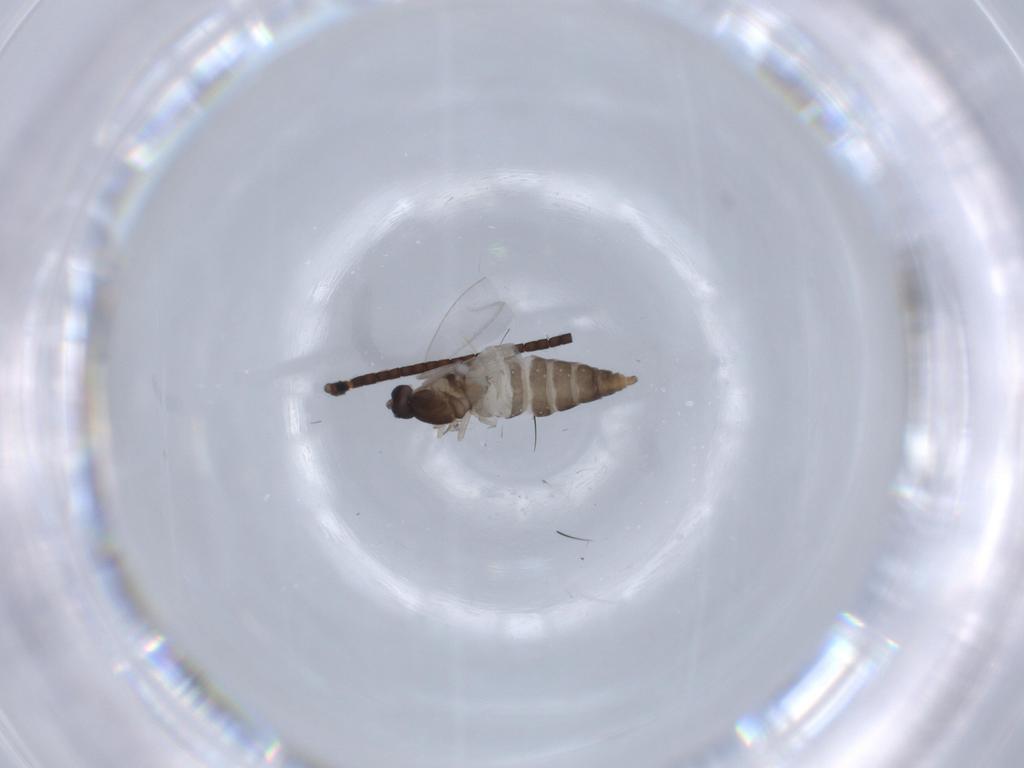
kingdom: Animalia
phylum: Arthropoda
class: Insecta
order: Diptera
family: Cecidomyiidae
